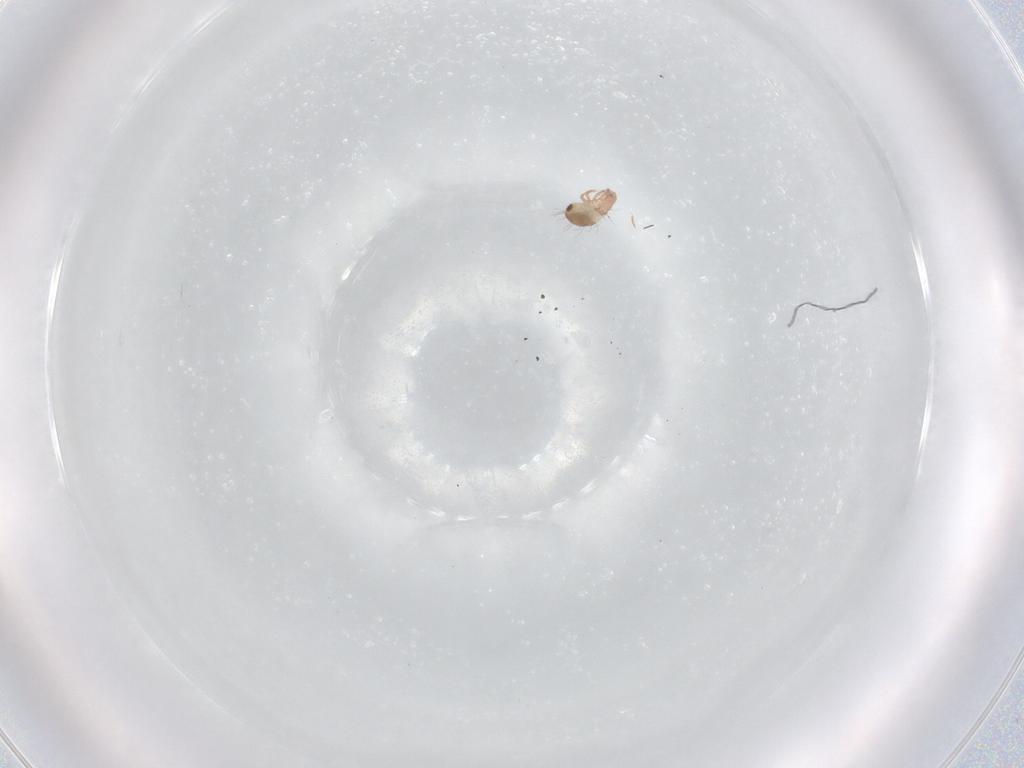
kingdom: Animalia
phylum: Arthropoda
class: Arachnida
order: Sarcoptiformes
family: Humerobatidae
